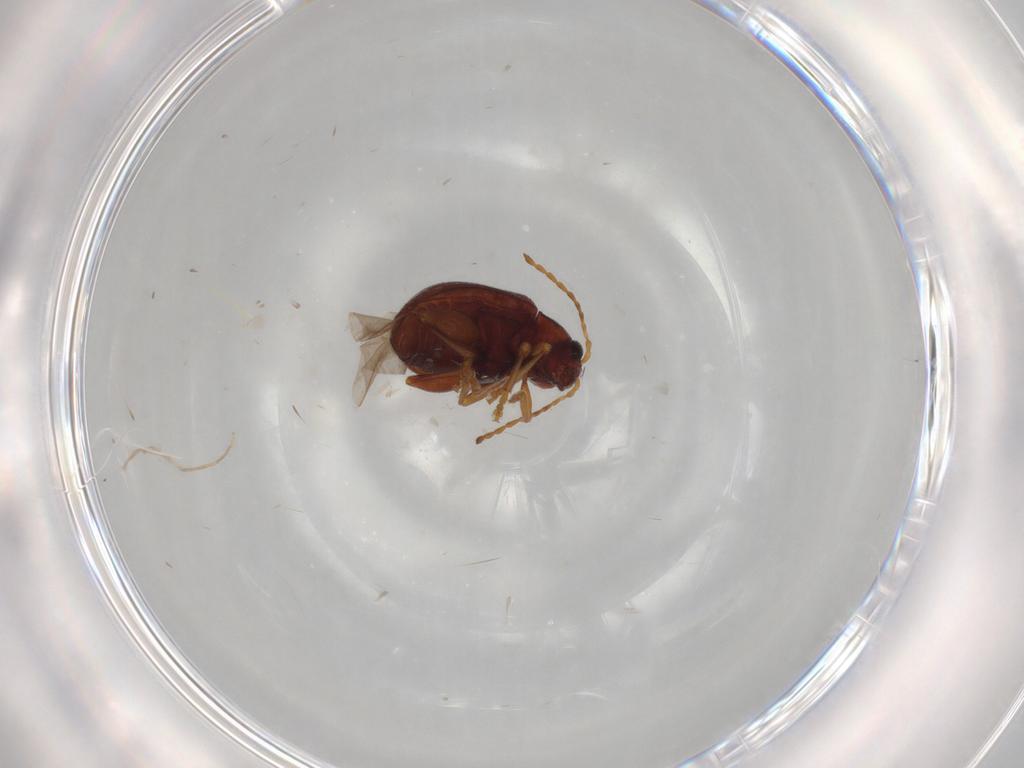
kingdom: Animalia
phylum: Arthropoda
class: Insecta
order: Coleoptera
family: Chrysomelidae
